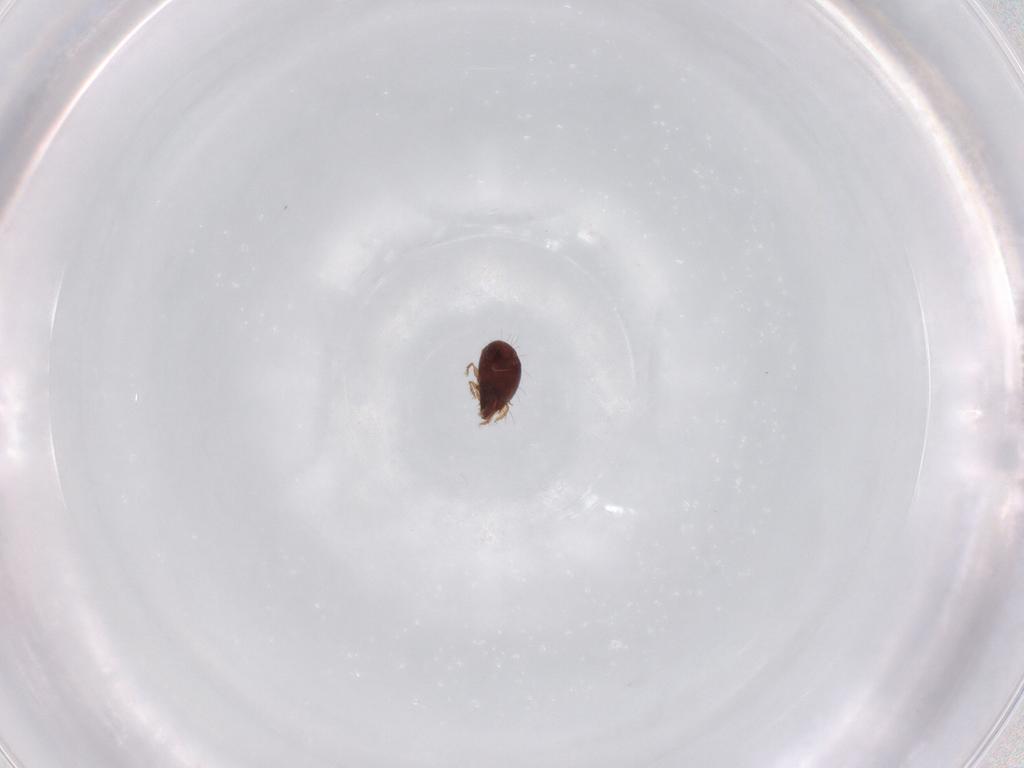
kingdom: Animalia
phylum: Arthropoda
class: Arachnida
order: Sarcoptiformes
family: Humerobatidae
